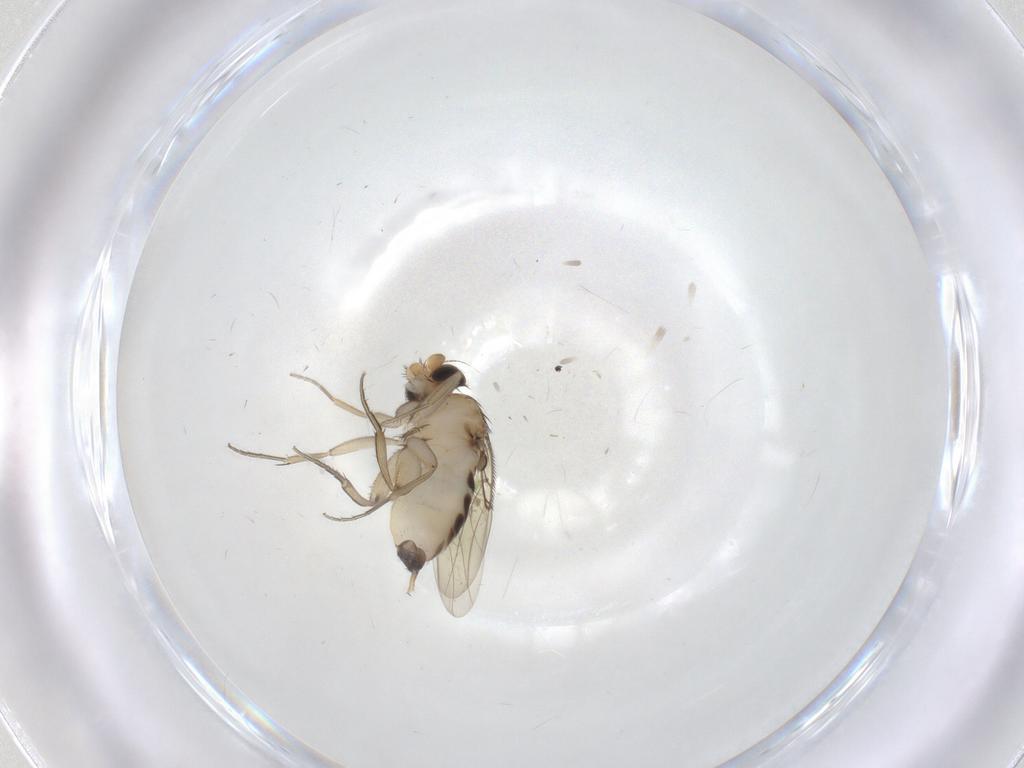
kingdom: Animalia
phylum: Arthropoda
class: Insecta
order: Diptera
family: Phoridae
